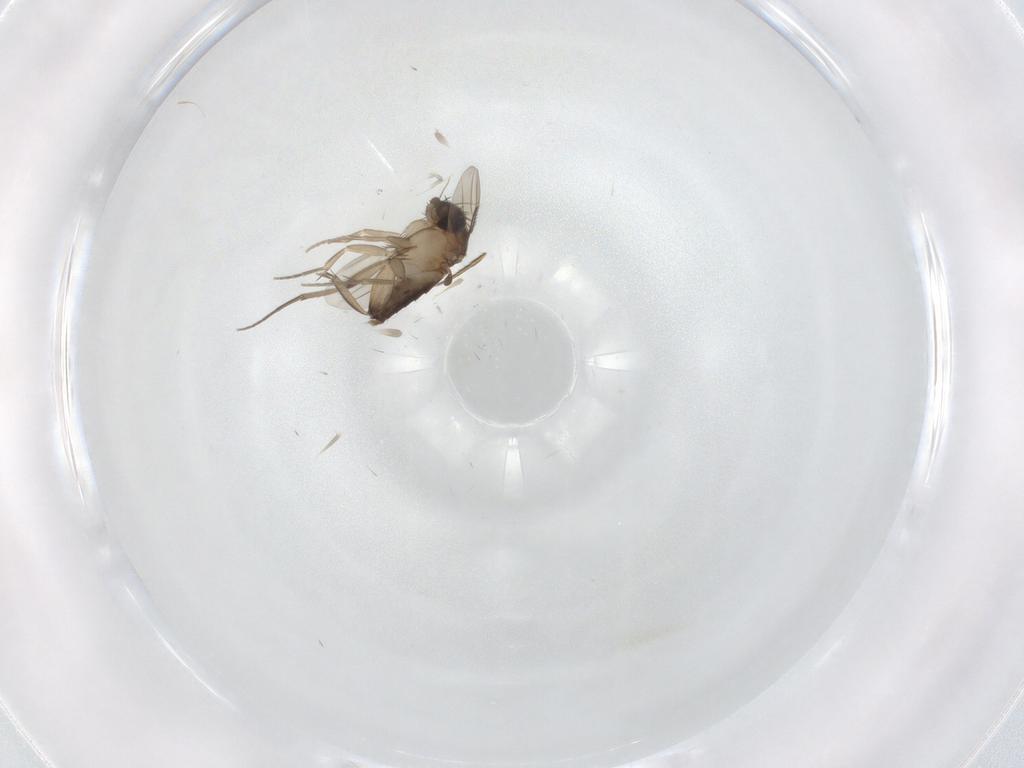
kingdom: Animalia
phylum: Arthropoda
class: Insecta
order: Diptera
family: Phoridae
